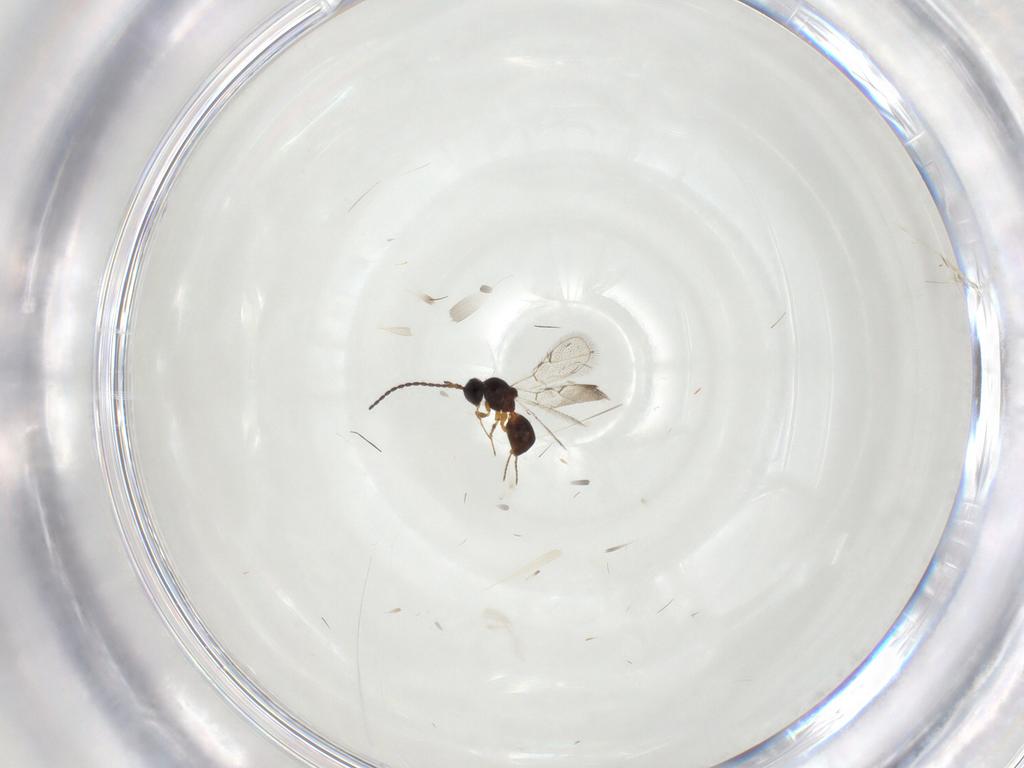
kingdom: Animalia
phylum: Arthropoda
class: Insecta
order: Hymenoptera
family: Figitidae
